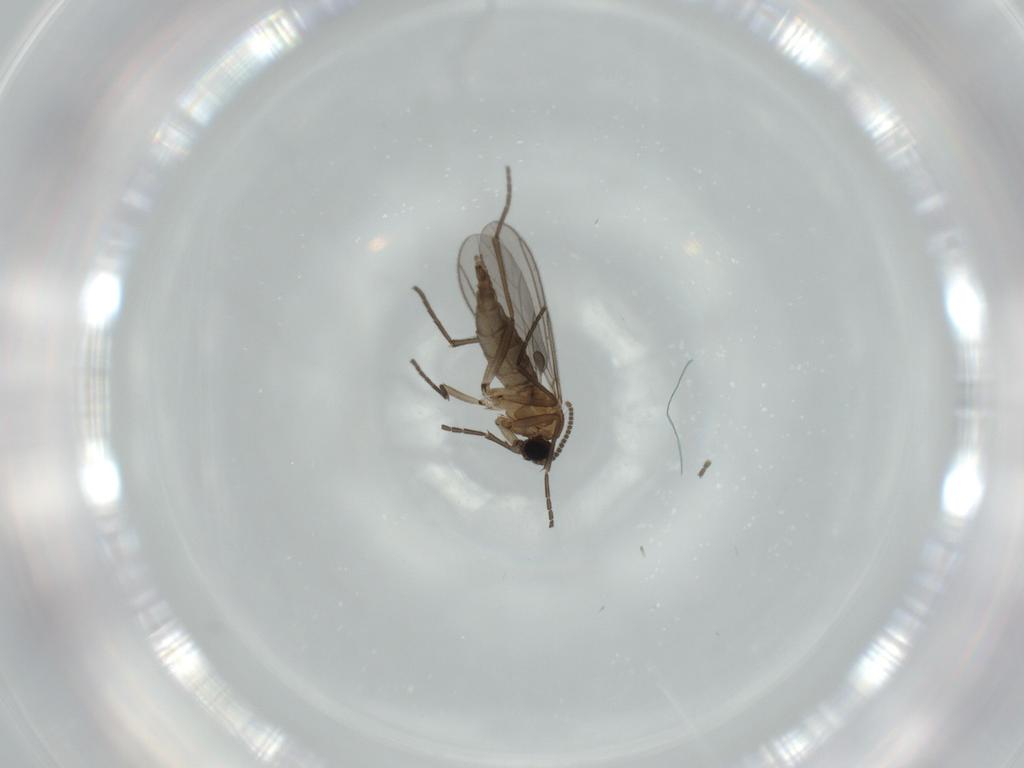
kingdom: Animalia
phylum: Arthropoda
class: Insecta
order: Diptera
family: Sciaridae
